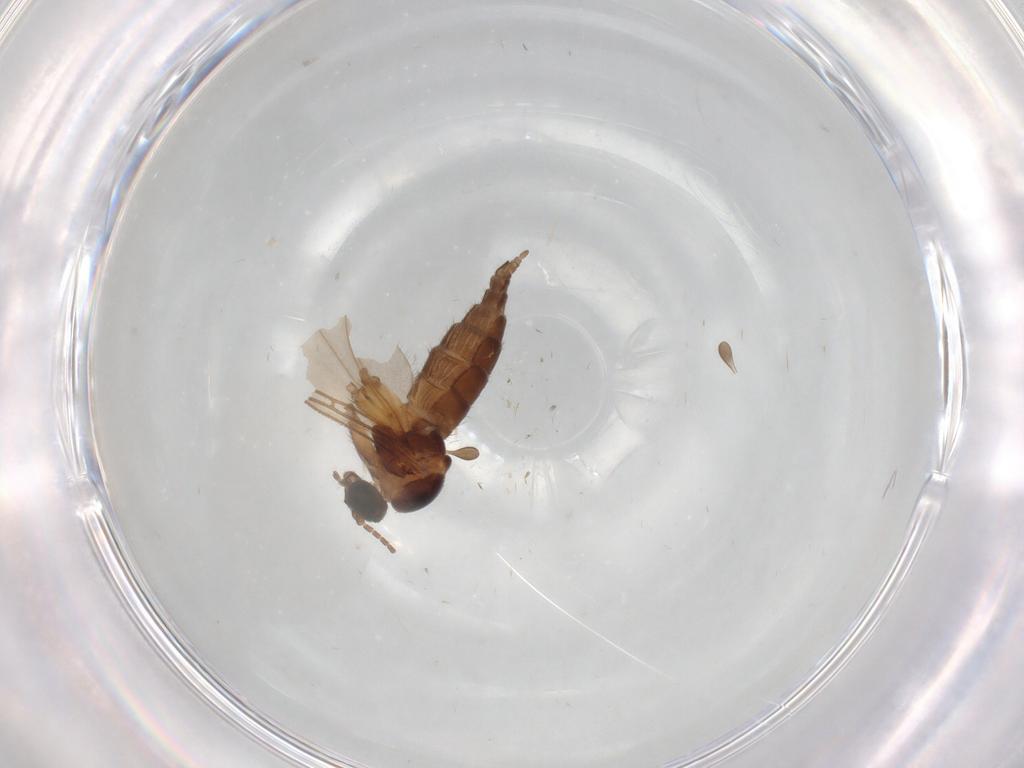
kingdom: Animalia
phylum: Arthropoda
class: Insecta
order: Diptera
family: Sciaridae
